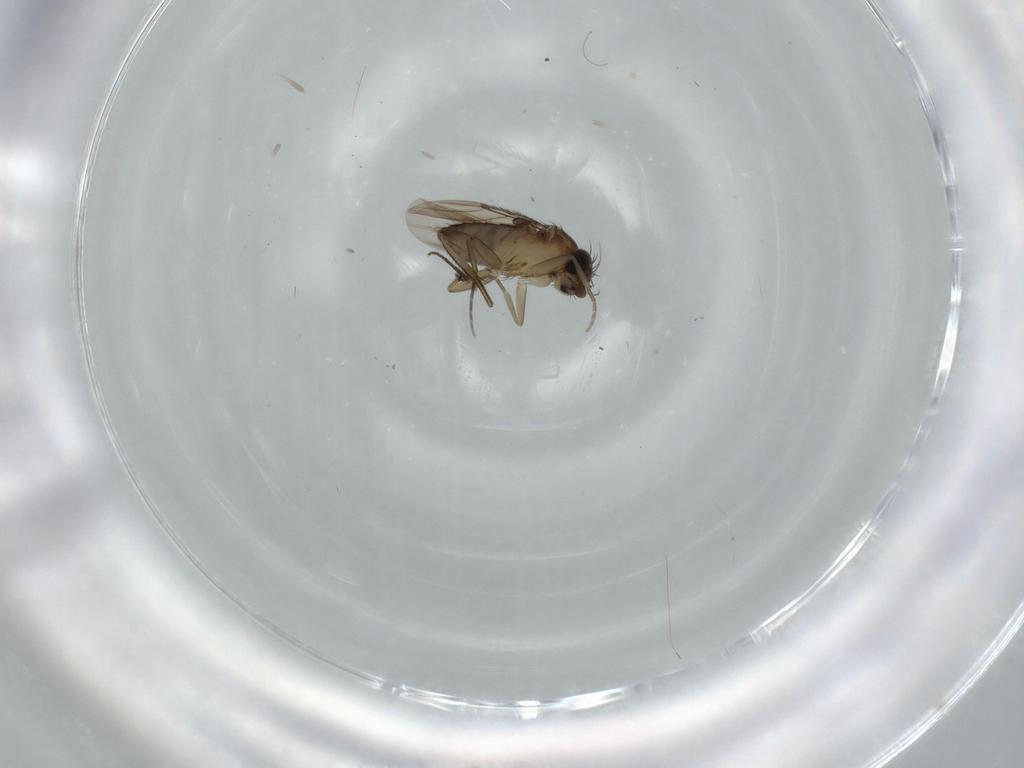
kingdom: Animalia
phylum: Arthropoda
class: Insecta
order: Diptera
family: Phoridae
